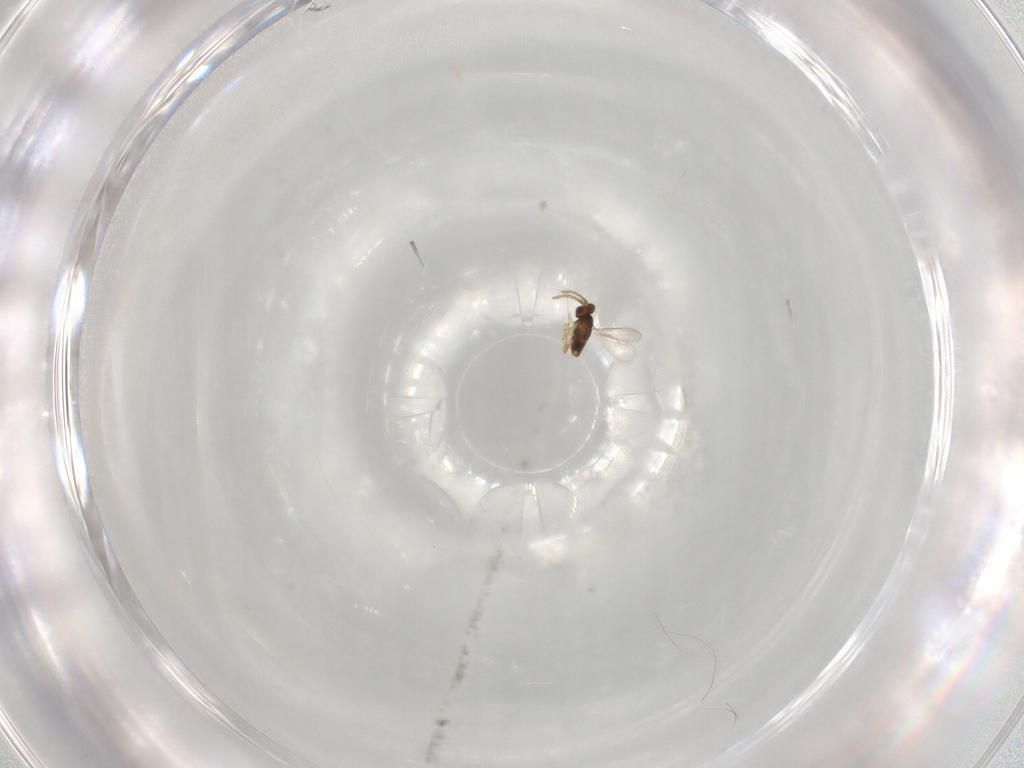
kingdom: Animalia
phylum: Arthropoda
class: Insecta
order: Hymenoptera
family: Aphelinidae
